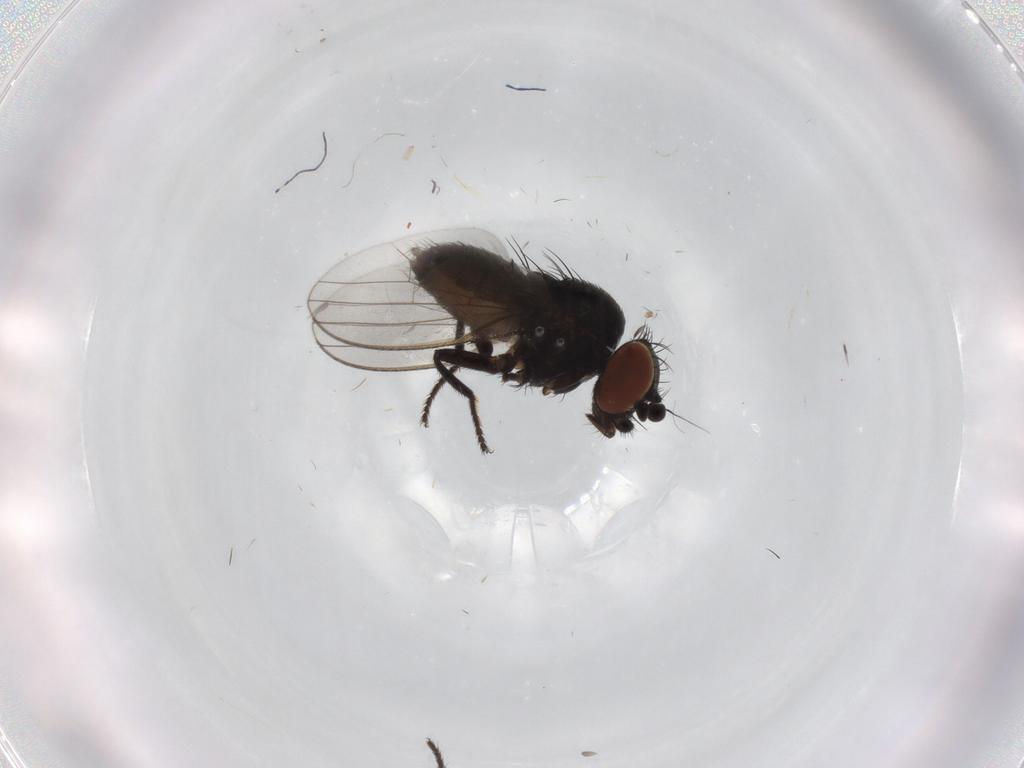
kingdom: Animalia
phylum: Arthropoda
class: Insecta
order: Diptera
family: Milichiidae
